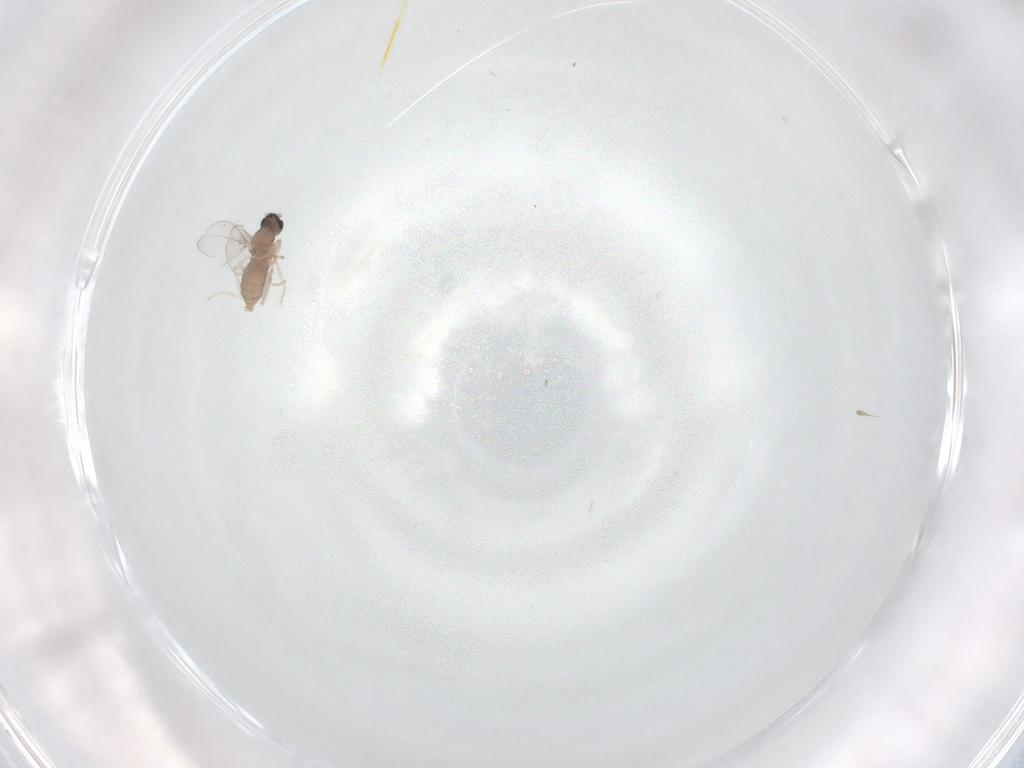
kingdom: Animalia
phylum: Arthropoda
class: Insecta
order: Diptera
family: Cecidomyiidae
